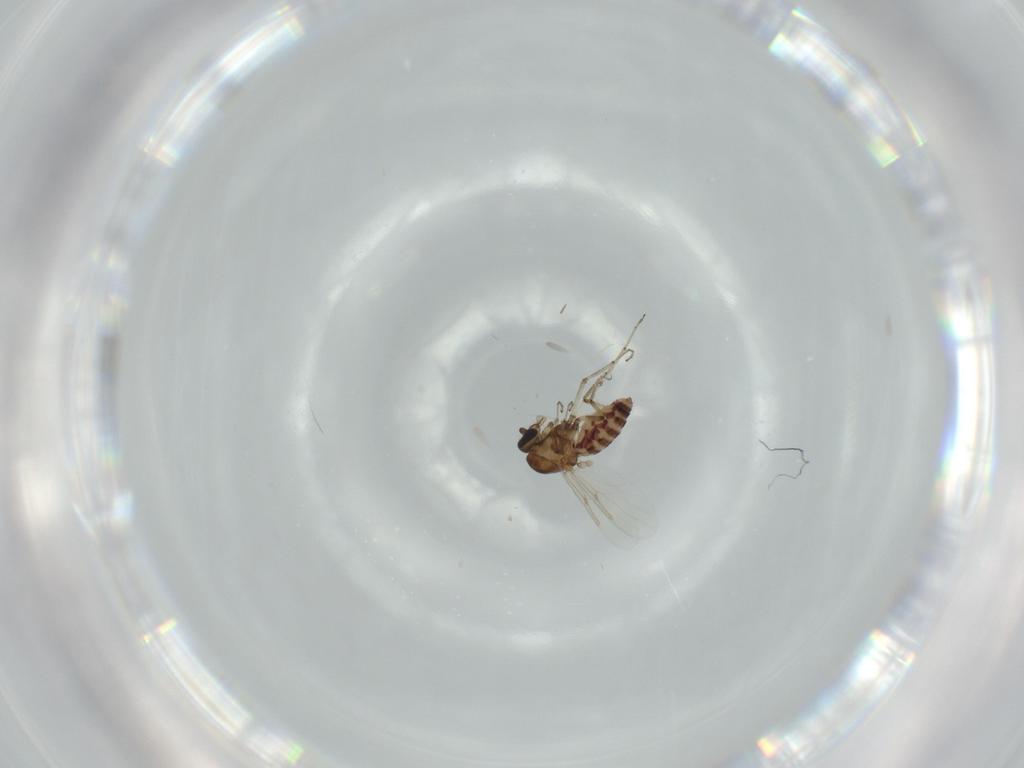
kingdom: Animalia
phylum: Arthropoda
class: Insecta
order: Diptera
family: Ceratopogonidae
